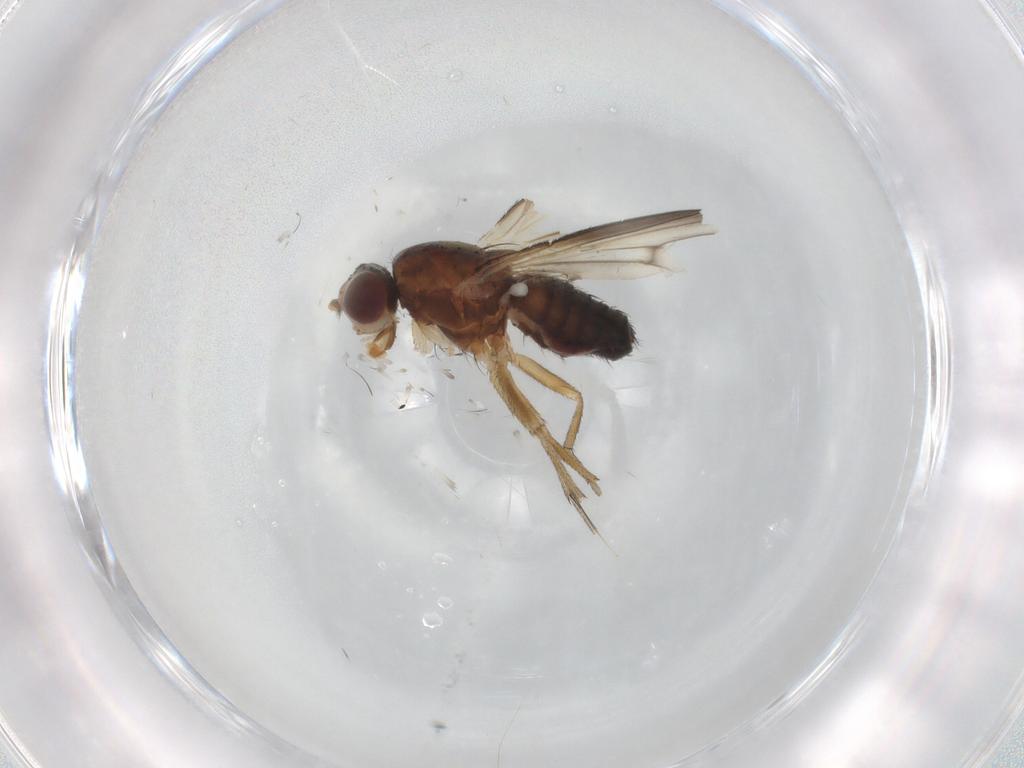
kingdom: Animalia
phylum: Arthropoda
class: Insecta
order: Diptera
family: Heleomyzidae
